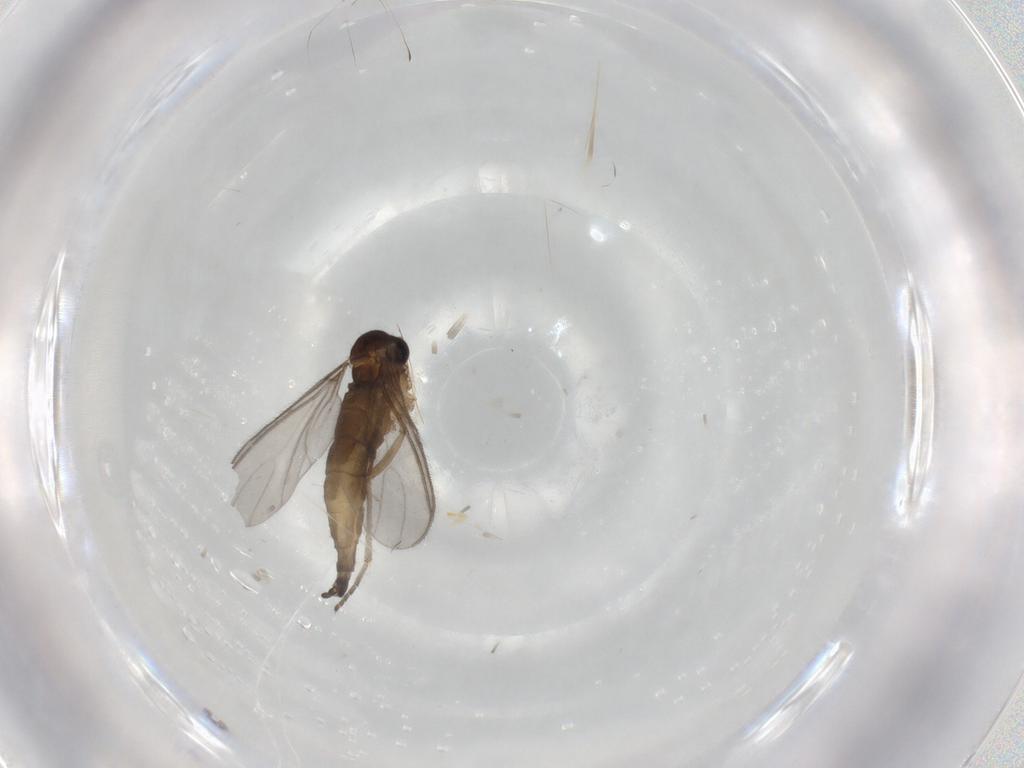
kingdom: Animalia
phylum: Arthropoda
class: Insecta
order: Diptera
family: Sciaridae
